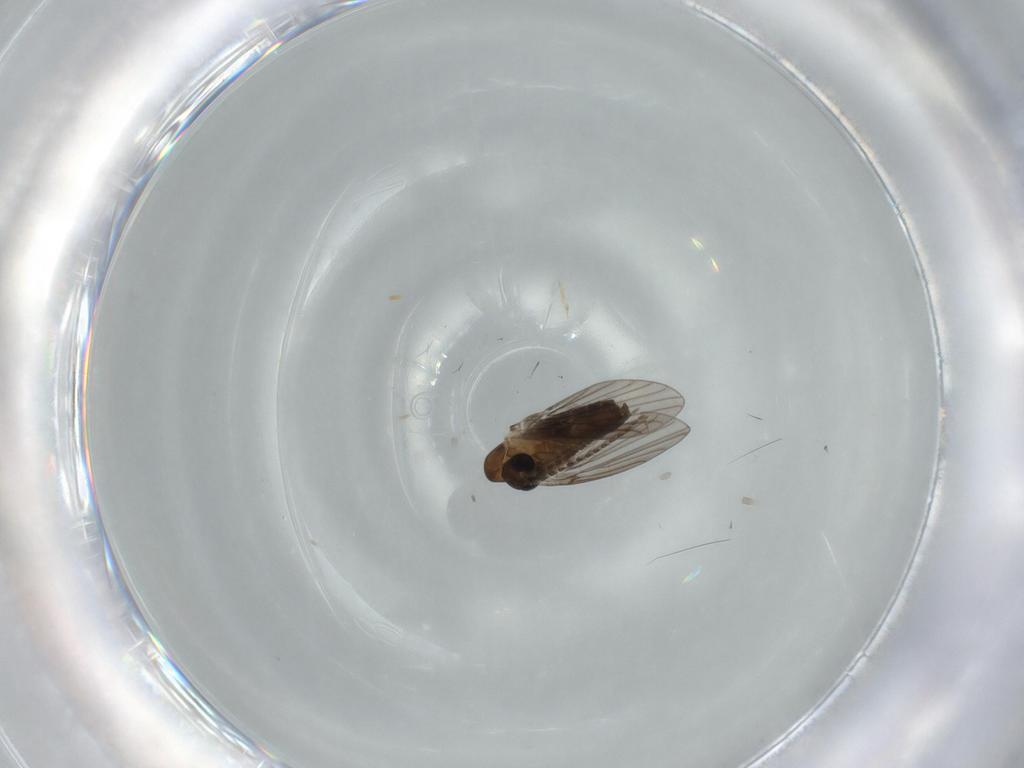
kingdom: Animalia
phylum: Arthropoda
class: Insecta
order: Diptera
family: Psychodidae
